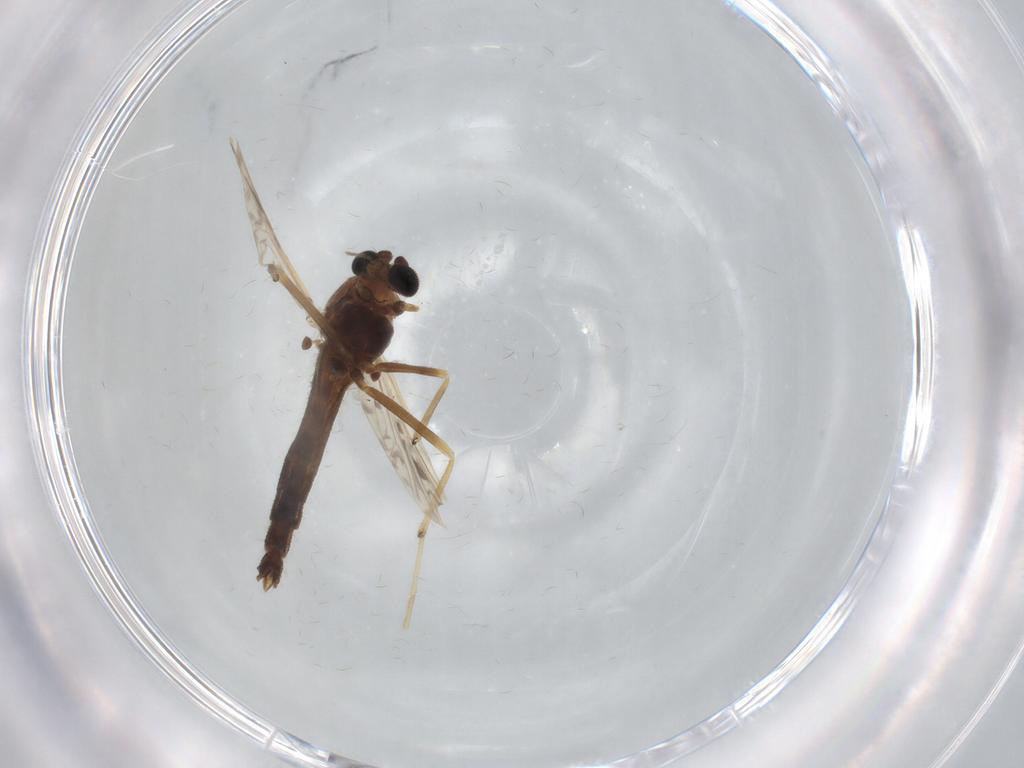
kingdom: Animalia
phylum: Arthropoda
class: Insecta
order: Diptera
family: Chironomidae
